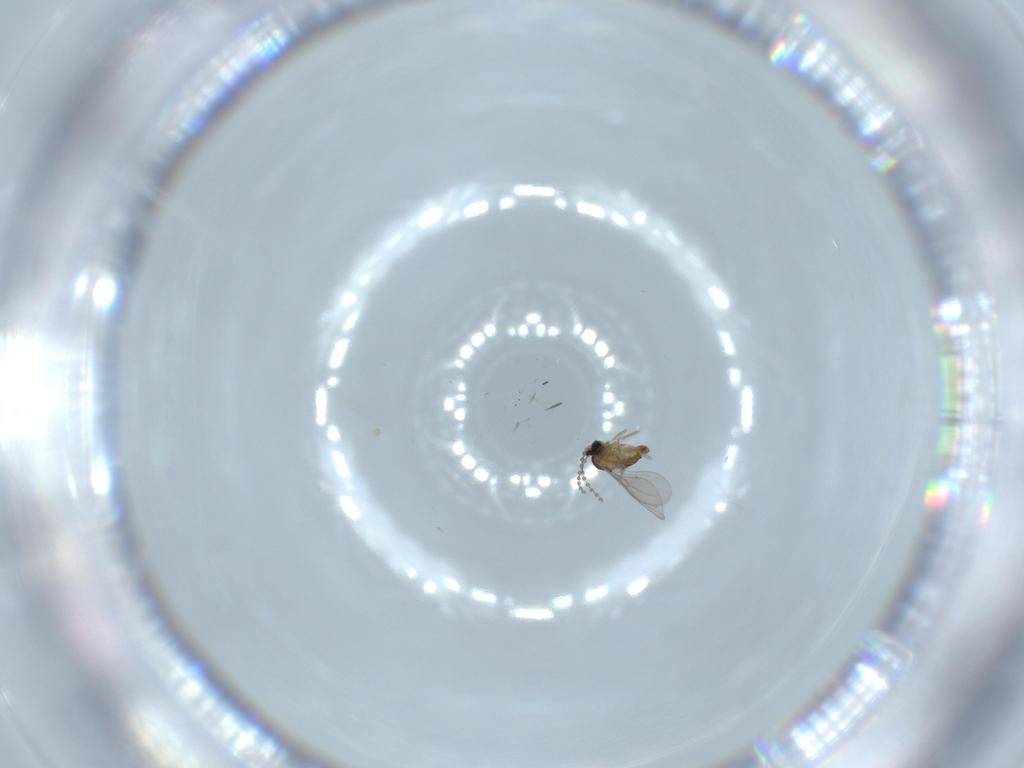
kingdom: Animalia
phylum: Arthropoda
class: Insecta
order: Diptera
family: Cecidomyiidae
